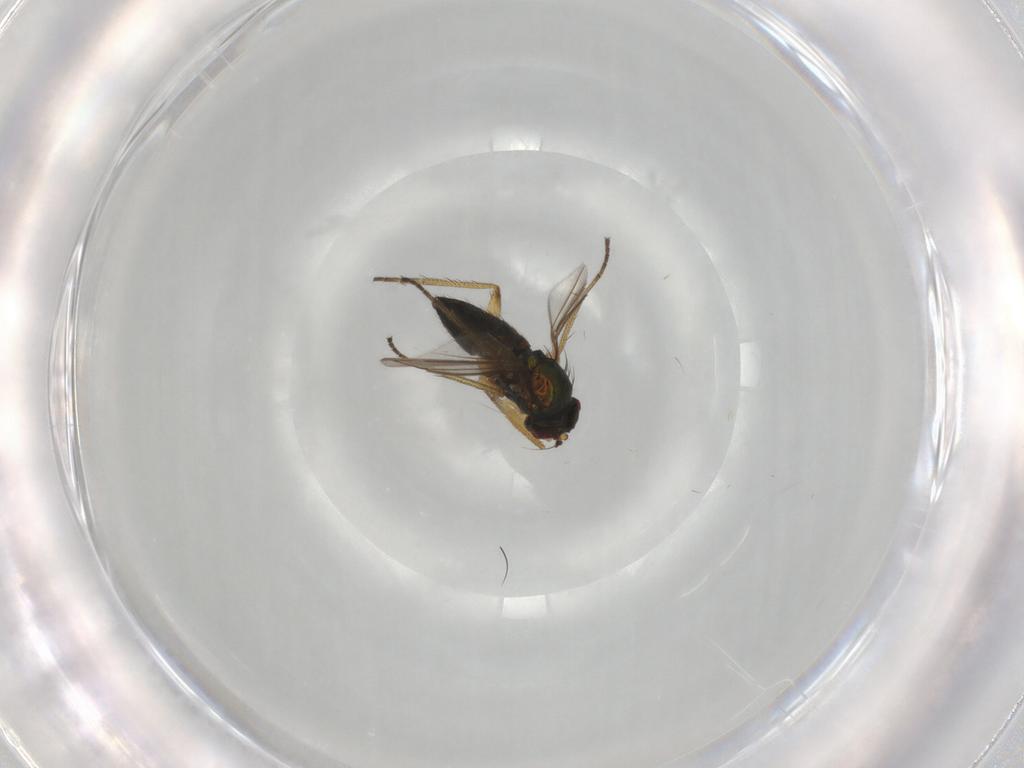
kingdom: Animalia
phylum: Arthropoda
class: Insecta
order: Diptera
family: Dolichopodidae
